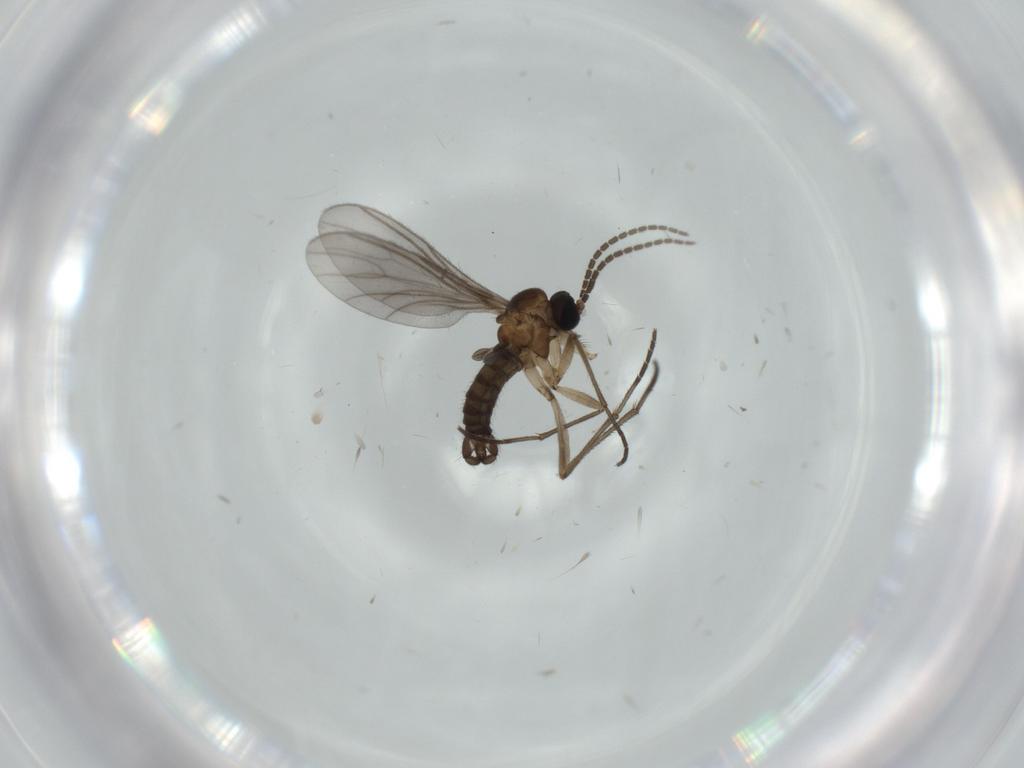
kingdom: Animalia
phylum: Arthropoda
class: Insecta
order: Diptera
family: Sciaridae
